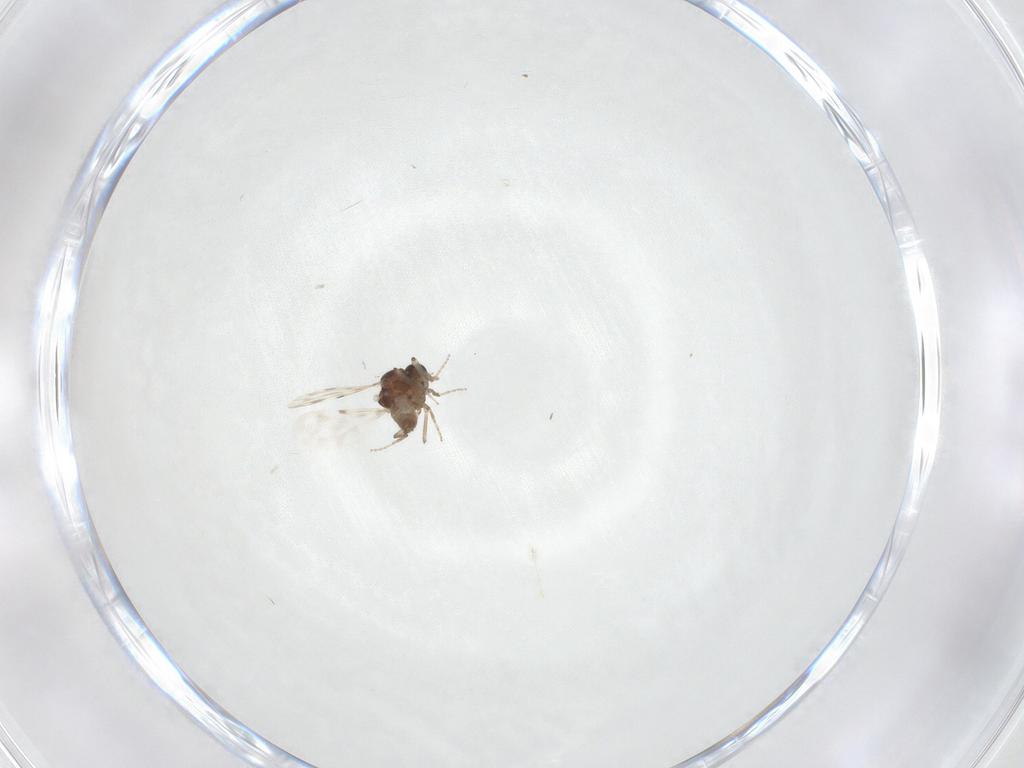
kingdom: Animalia
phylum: Arthropoda
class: Insecta
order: Diptera
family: Ceratopogonidae
